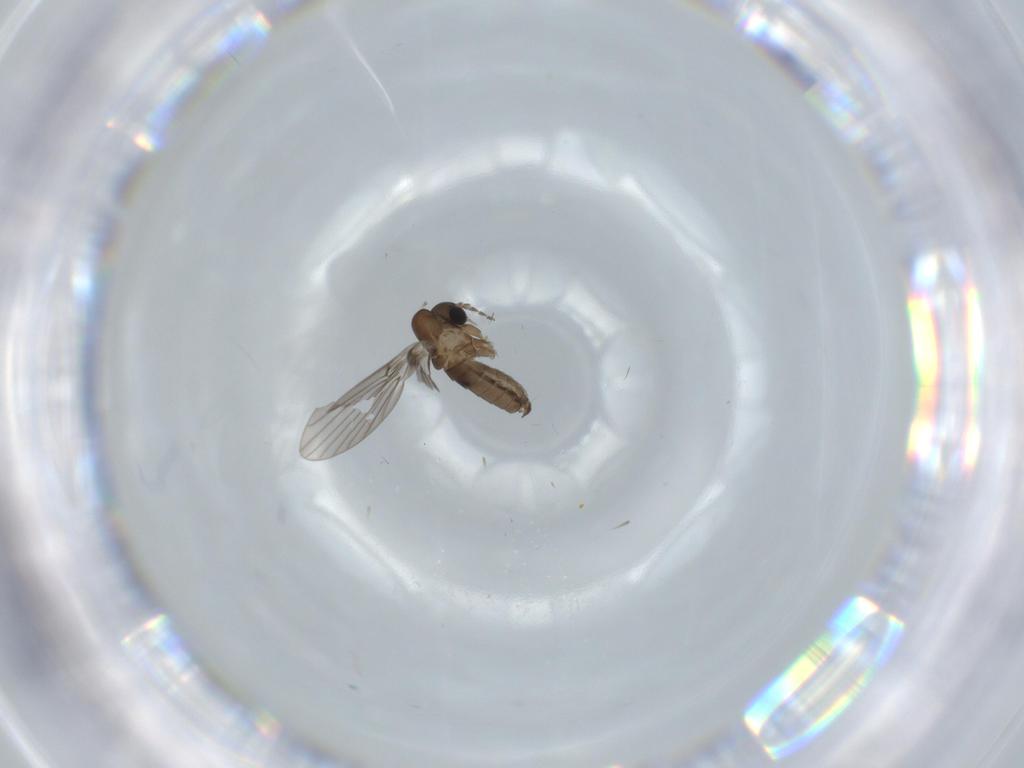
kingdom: Animalia
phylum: Arthropoda
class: Insecta
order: Diptera
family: Psychodidae
